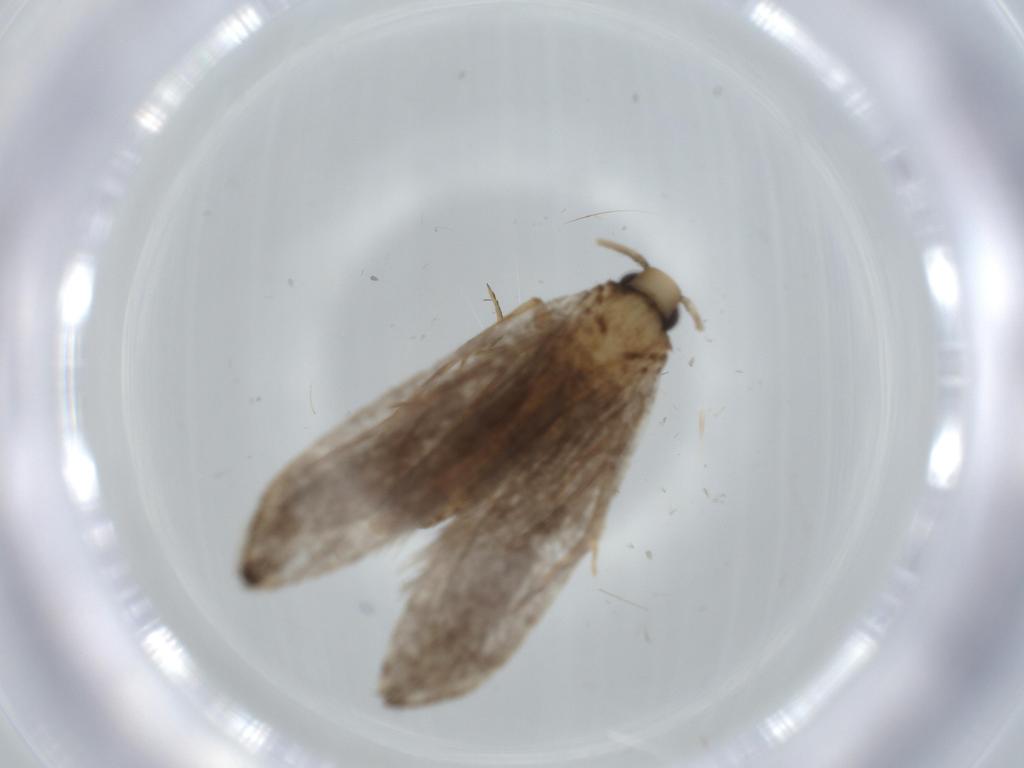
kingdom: Animalia
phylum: Arthropoda
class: Insecta
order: Lepidoptera
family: Tineidae
